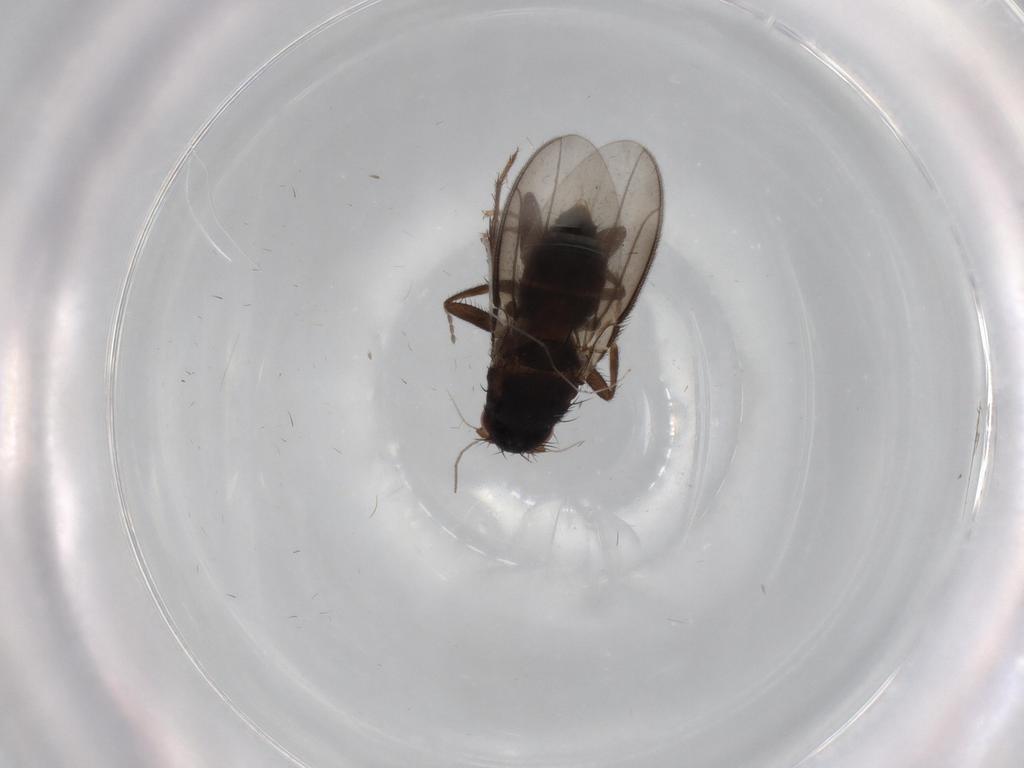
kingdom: Animalia
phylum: Arthropoda
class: Insecta
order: Diptera
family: Sphaeroceridae
